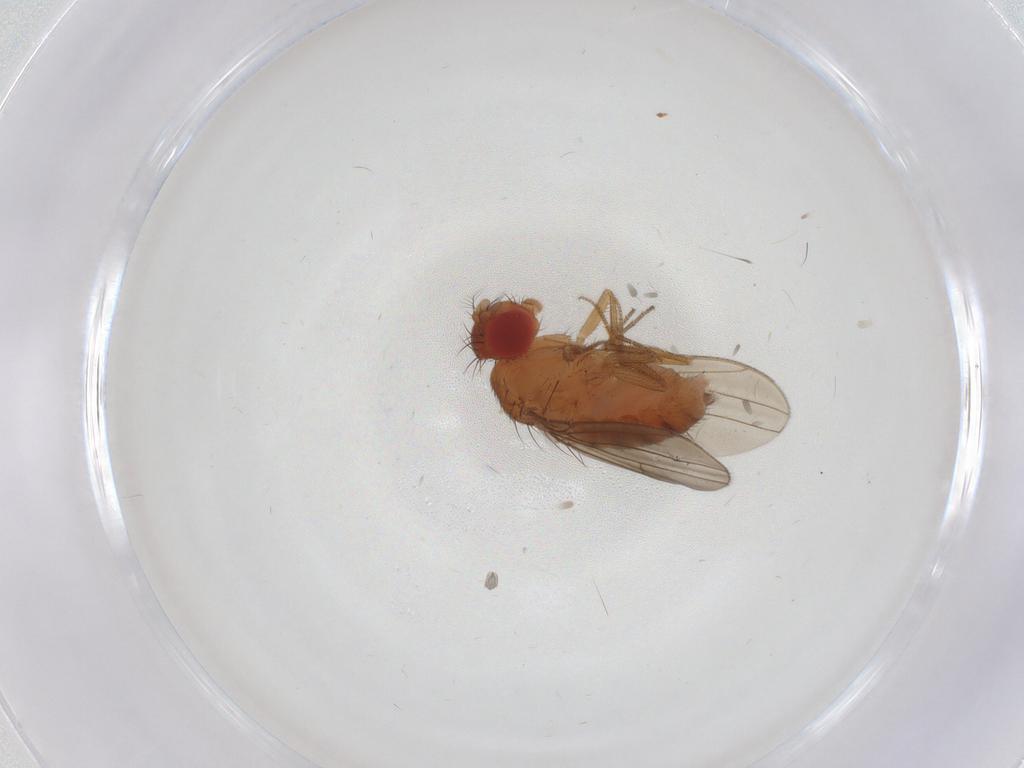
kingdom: Animalia
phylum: Arthropoda
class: Insecta
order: Diptera
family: Drosophilidae
